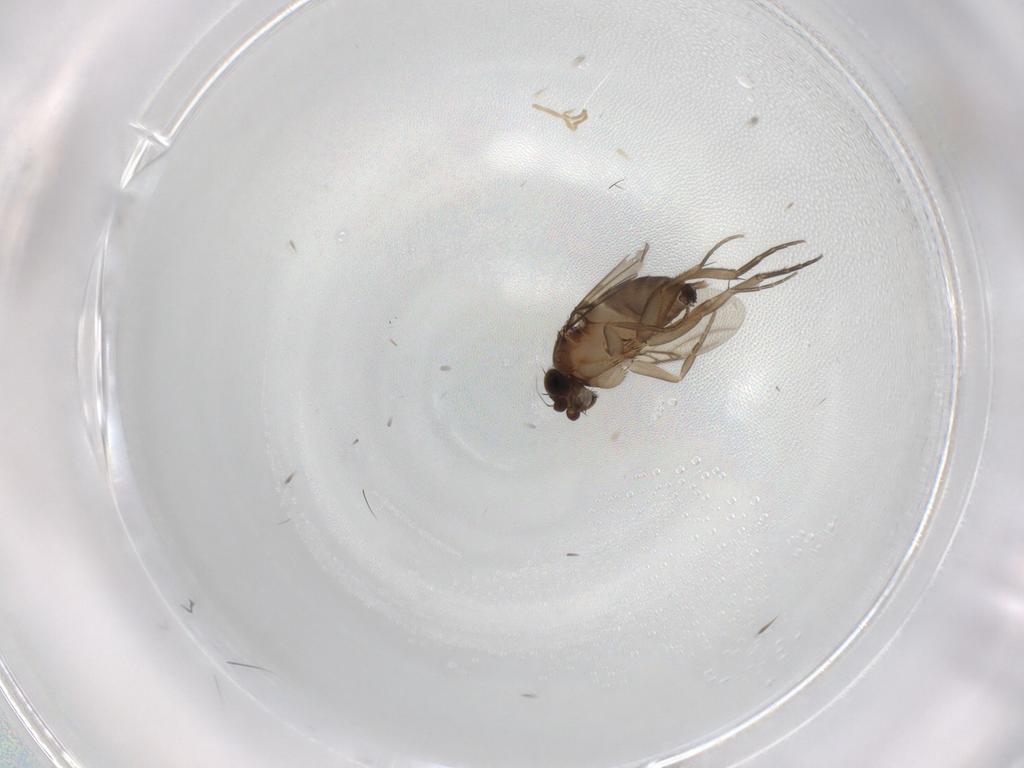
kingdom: Animalia
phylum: Arthropoda
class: Insecta
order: Diptera
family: Phoridae
